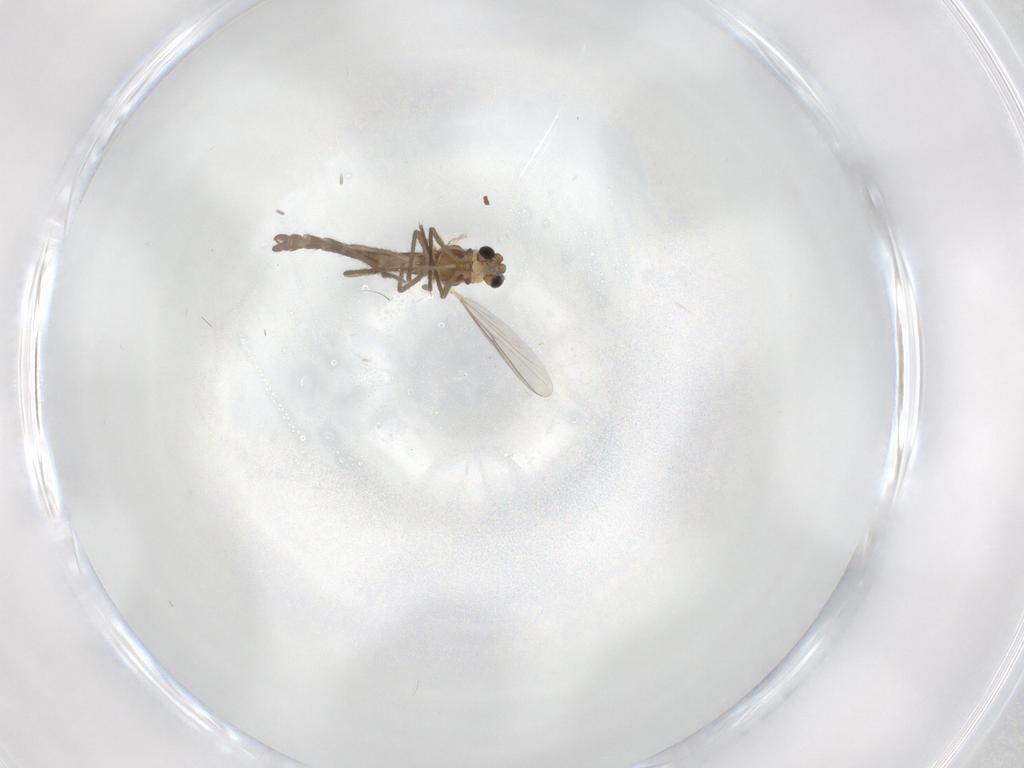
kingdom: Animalia
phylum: Arthropoda
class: Insecta
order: Diptera
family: Chironomidae
